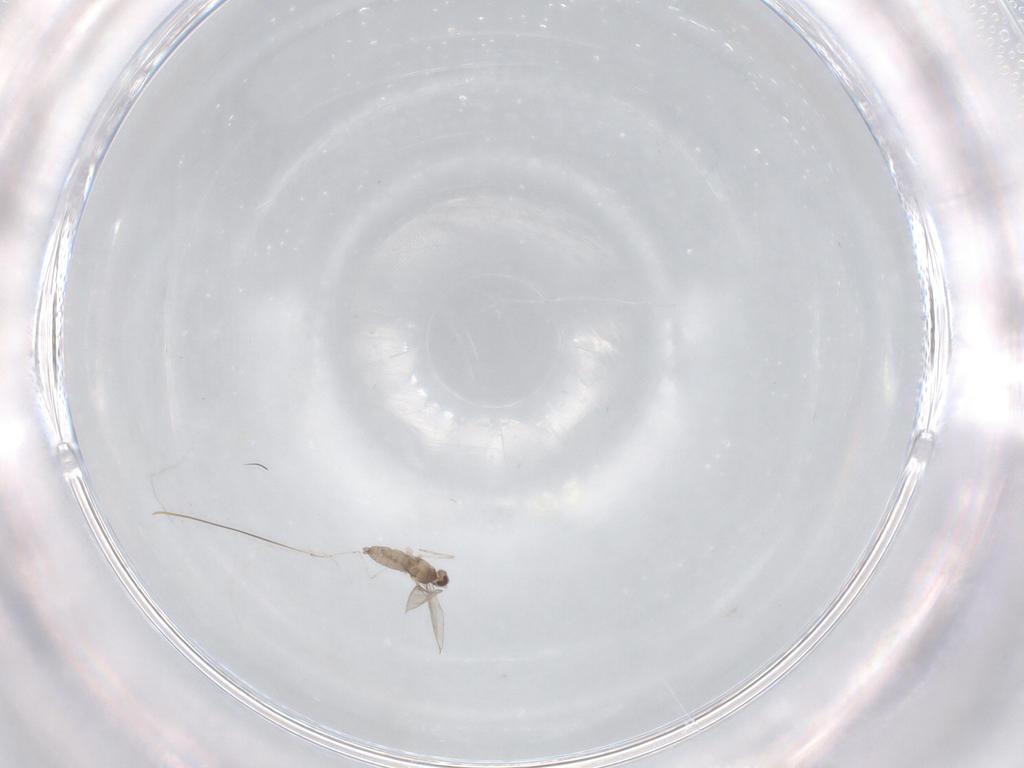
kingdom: Animalia
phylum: Arthropoda
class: Insecta
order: Diptera
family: Cecidomyiidae
